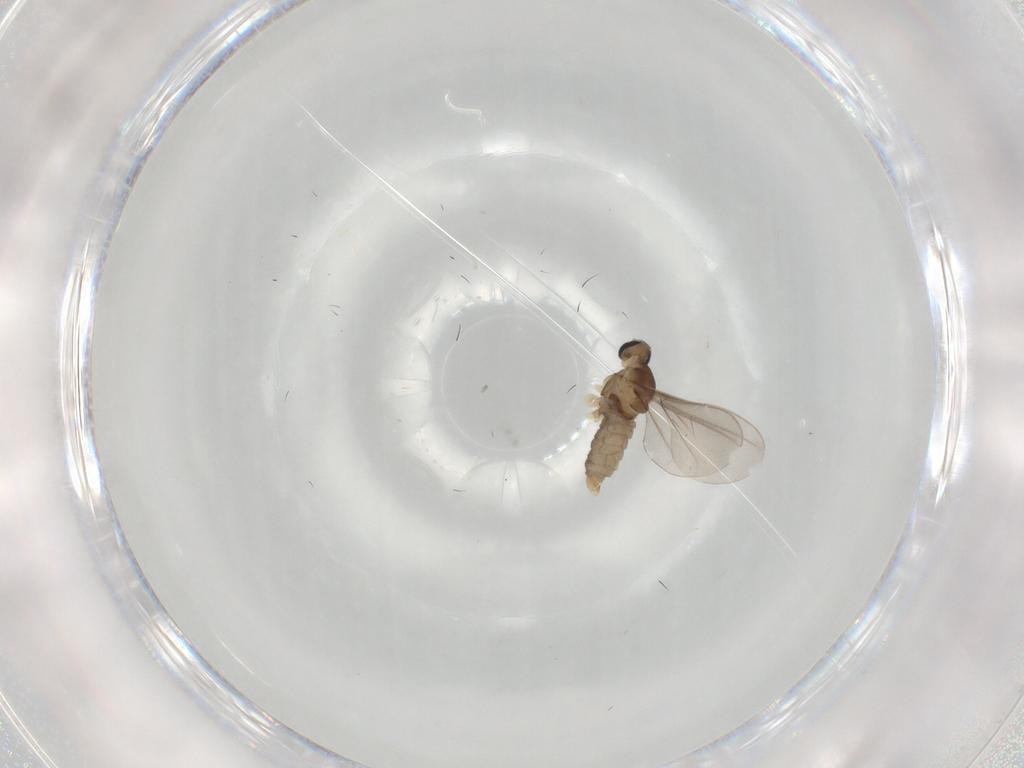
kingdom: Animalia
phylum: Arthropoda
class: Insecta
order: Diptera
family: Cecidomyiidae
